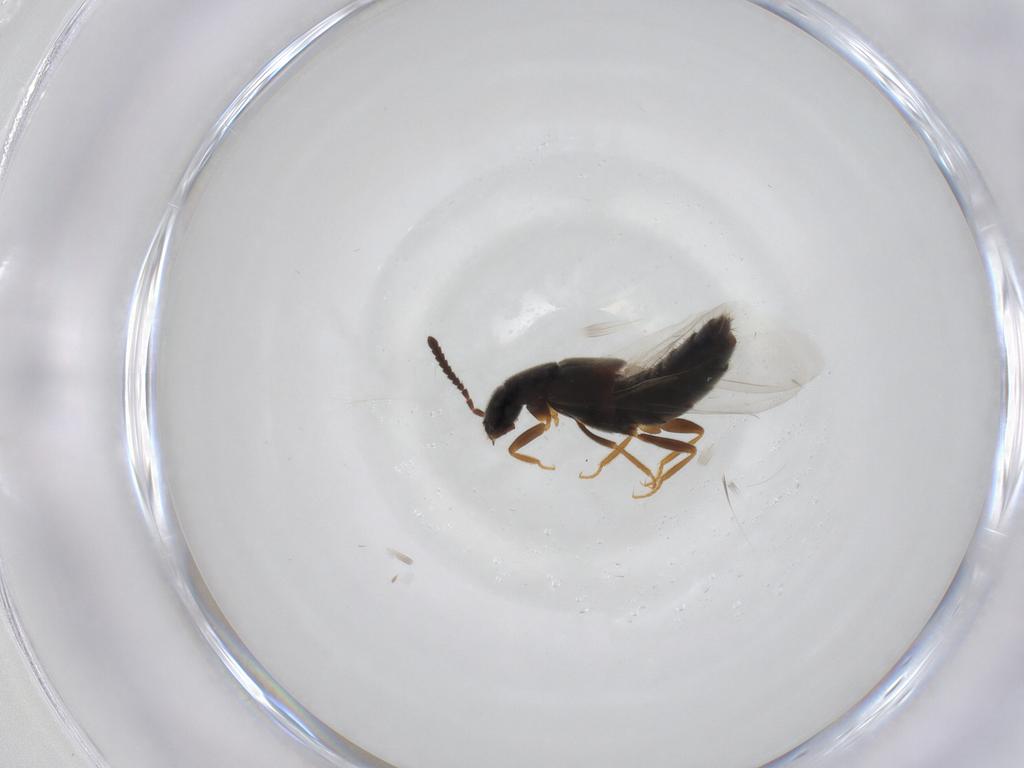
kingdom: Animalia
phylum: Arthropoda
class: Insecta
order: Coleoptera
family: Staphylinidae
